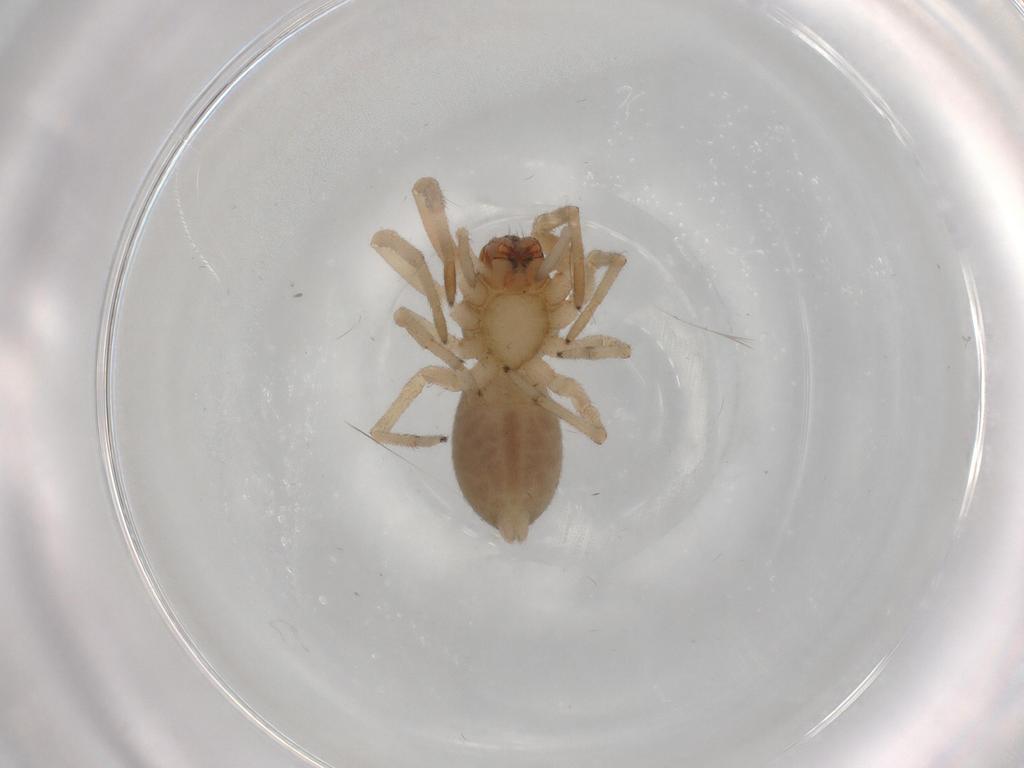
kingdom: Animalia
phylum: Arthropoda
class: Arachnida
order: Araneae
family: Trachelidae
